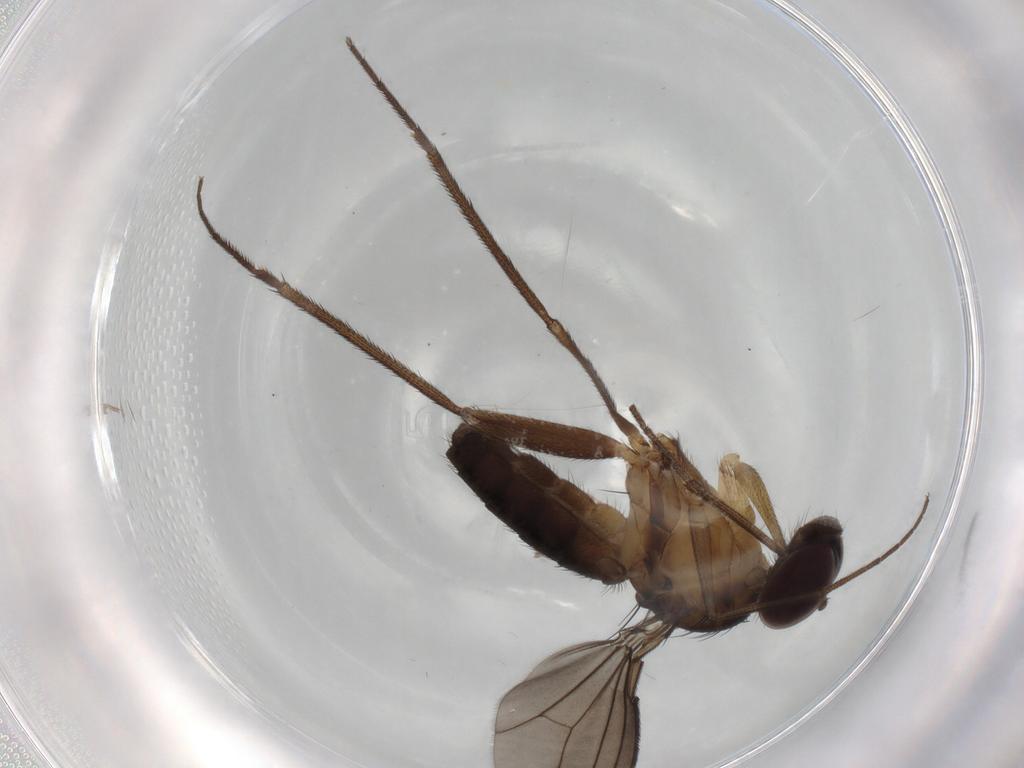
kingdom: Animalia
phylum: Arthropoda
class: Insecta
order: Diptera
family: Dolichopodidae
